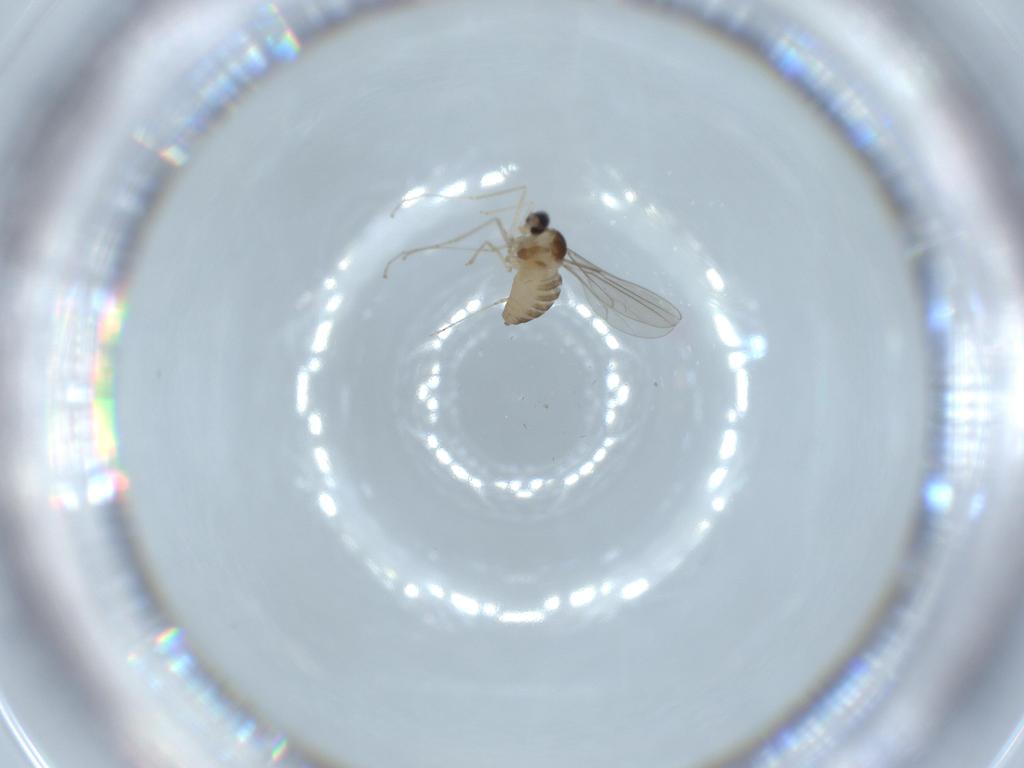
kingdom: Animalia
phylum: Arthropoda
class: Insecta
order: Diptera
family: Cecidomyiidae
